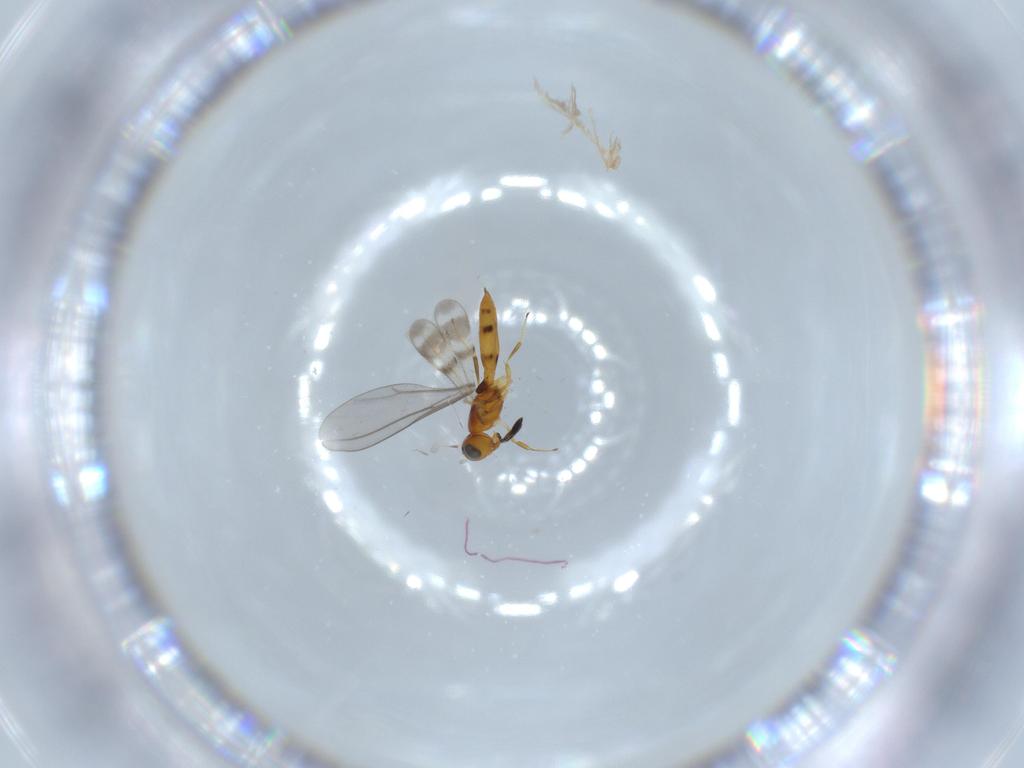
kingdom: Animalia
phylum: Arthropoda
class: Insecta
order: Hymenoptera
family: Scelionidae
